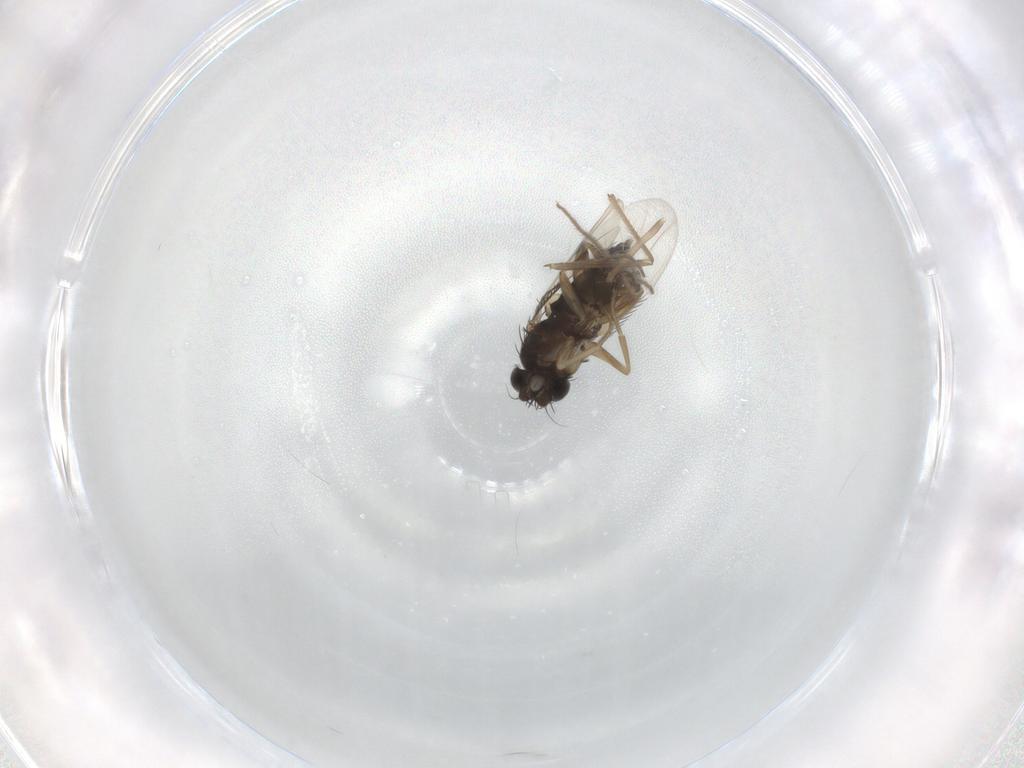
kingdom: Animalia
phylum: Arthropoda
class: Insecta
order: Diptera
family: Phoridae
